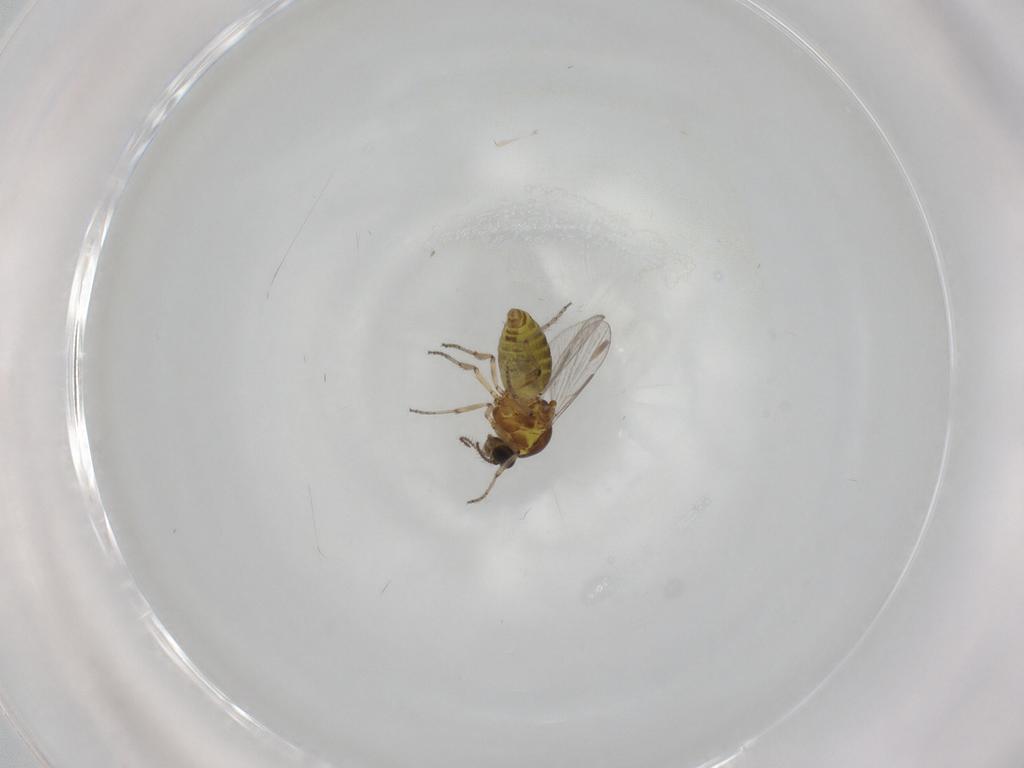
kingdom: Animalia
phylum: Arthropoda
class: Insecta
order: Diptera
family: Ceratopogonidae
